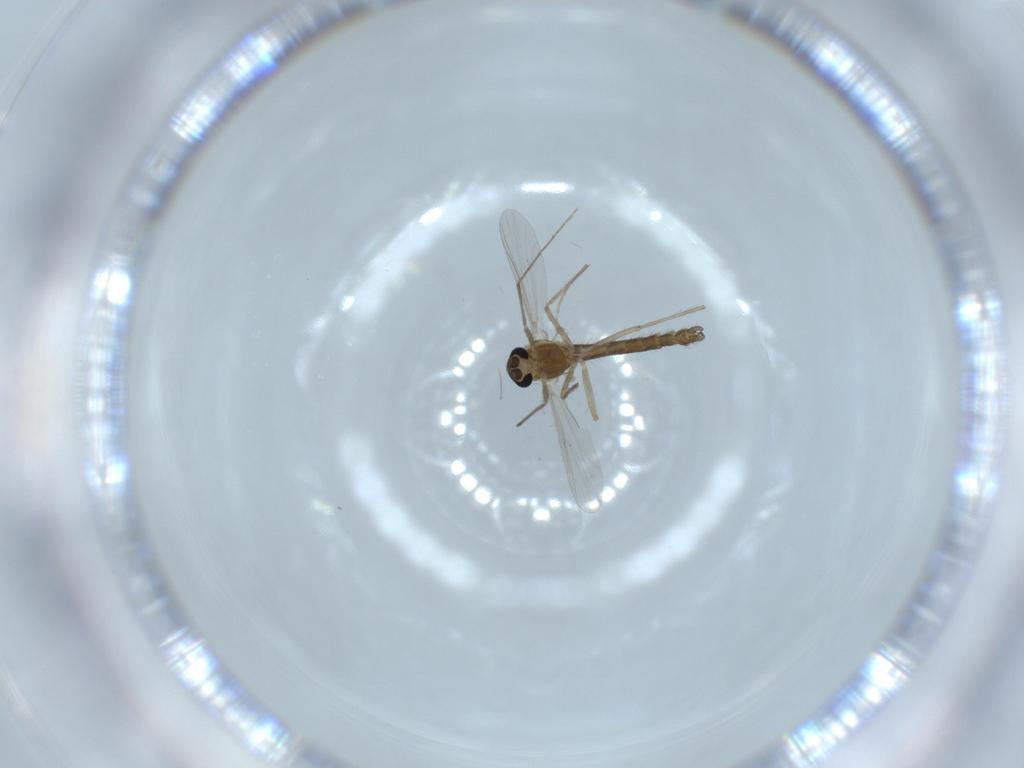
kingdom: Animalia
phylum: Arthropoda
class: Insecta
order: Diptera
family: Chironomidae
